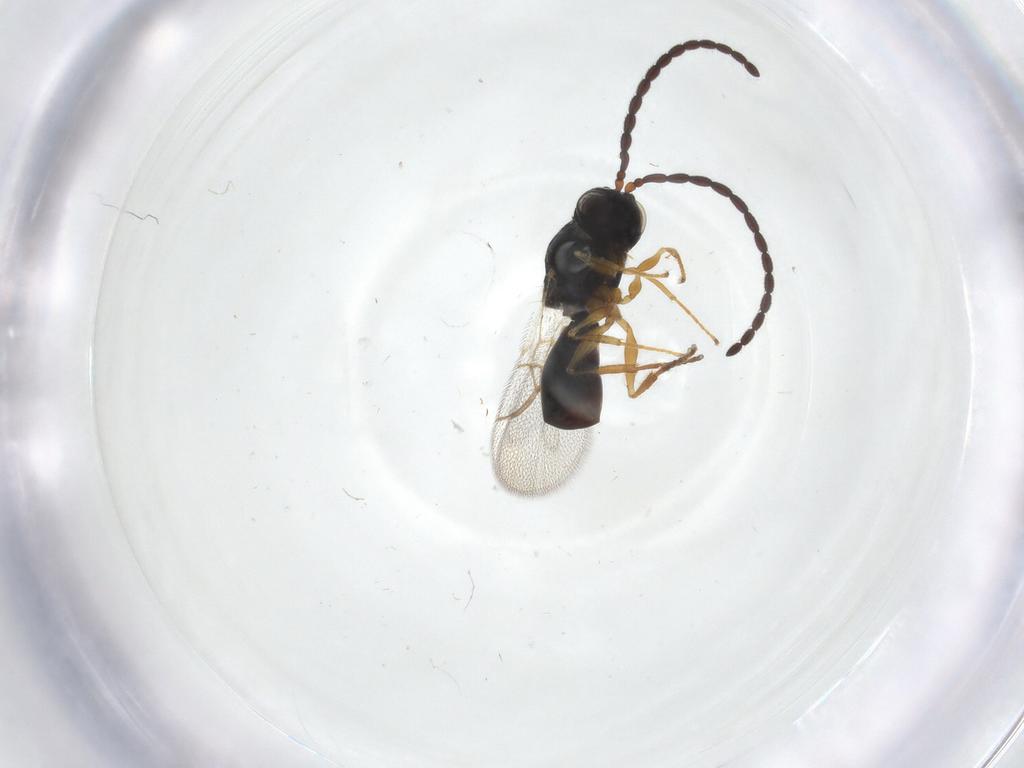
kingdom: Animalia
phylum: Arthropoda
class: Insecta
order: Hymenoptera
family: Figitidae
